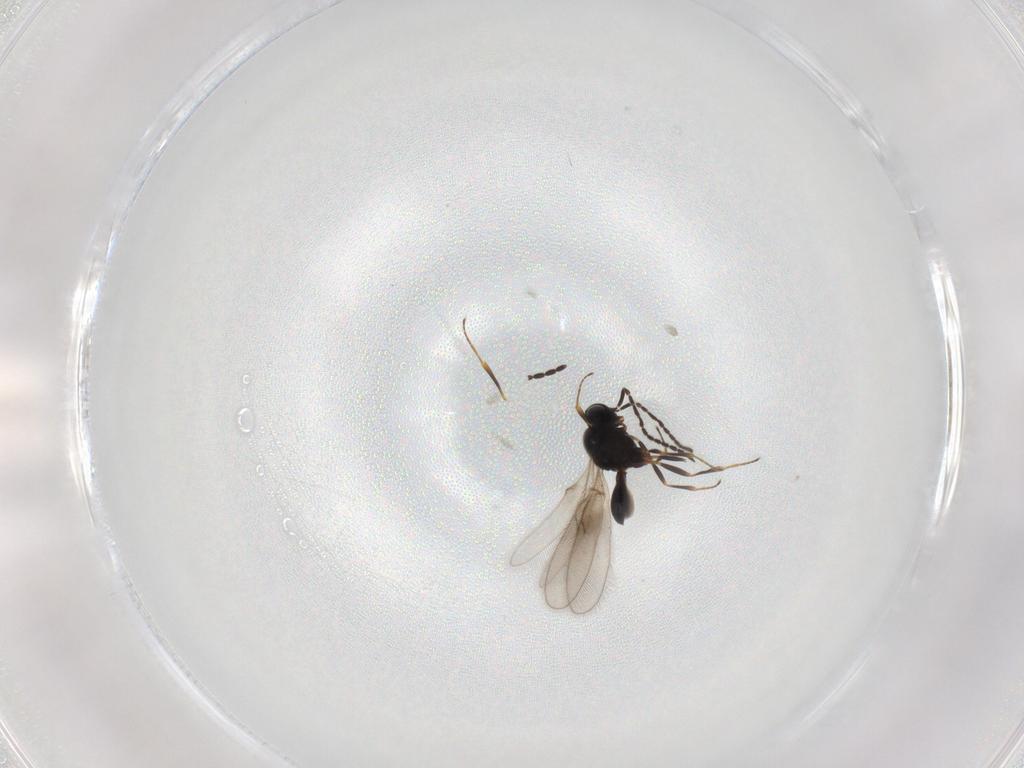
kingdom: Animalia
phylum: Arthropoda
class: Insecta
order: Hymenoptera
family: Scelionidae
